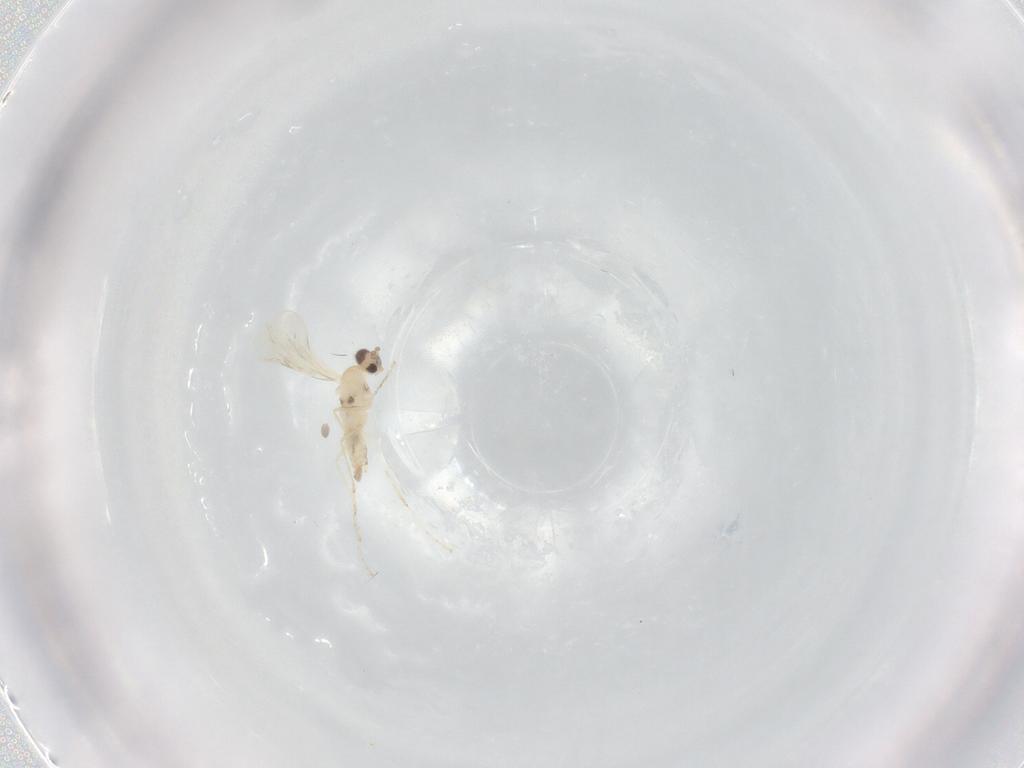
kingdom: Animalia
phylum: Arthropoda
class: Insecta
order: Diptera
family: Cecidomyiidae
